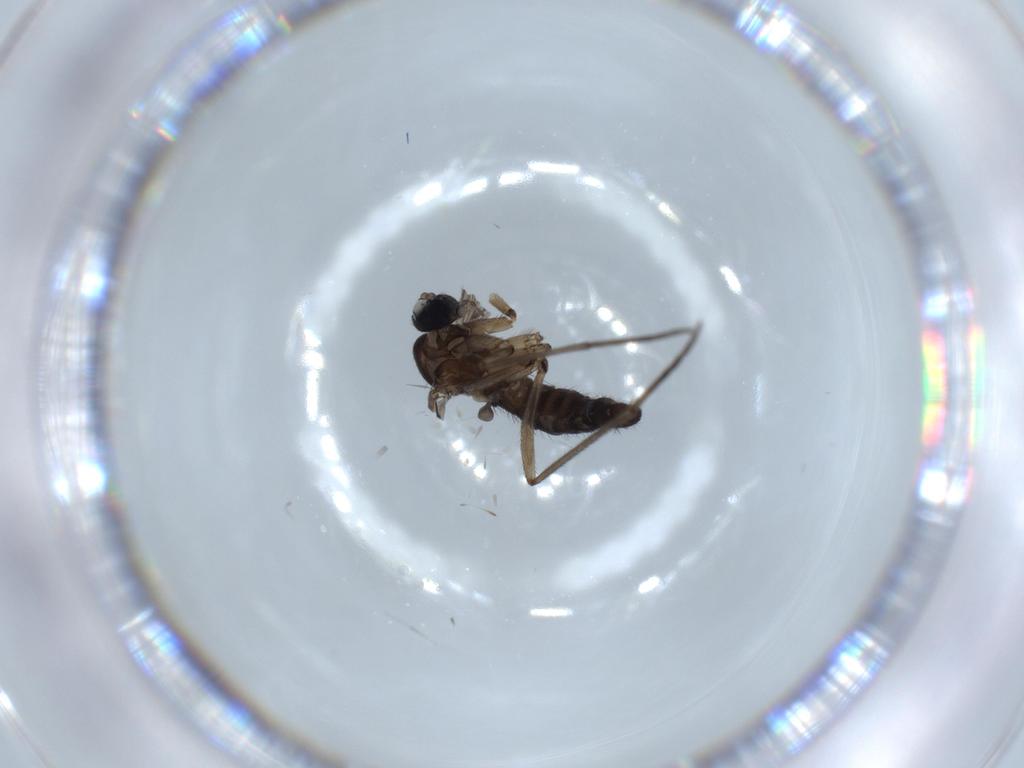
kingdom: Animalia
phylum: Arthropoda
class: Insecta
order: Diptera
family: Sciaridae
